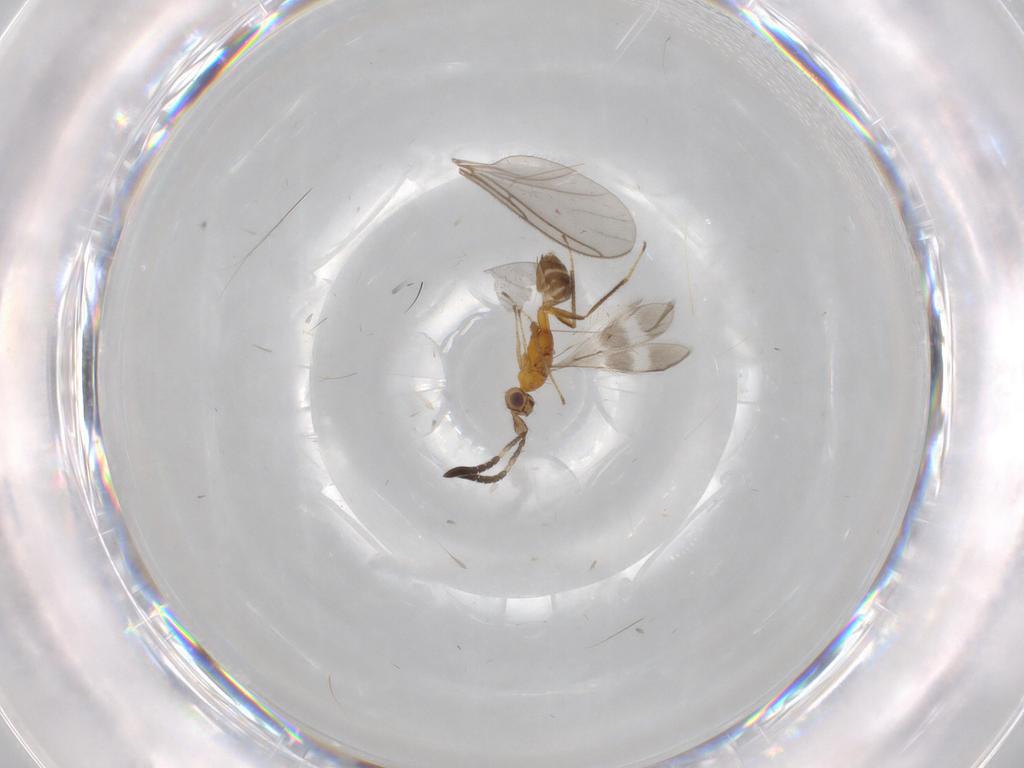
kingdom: Animalia
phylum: Arthropoda
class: Insecta
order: Hymenoptera
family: Mymaridae
